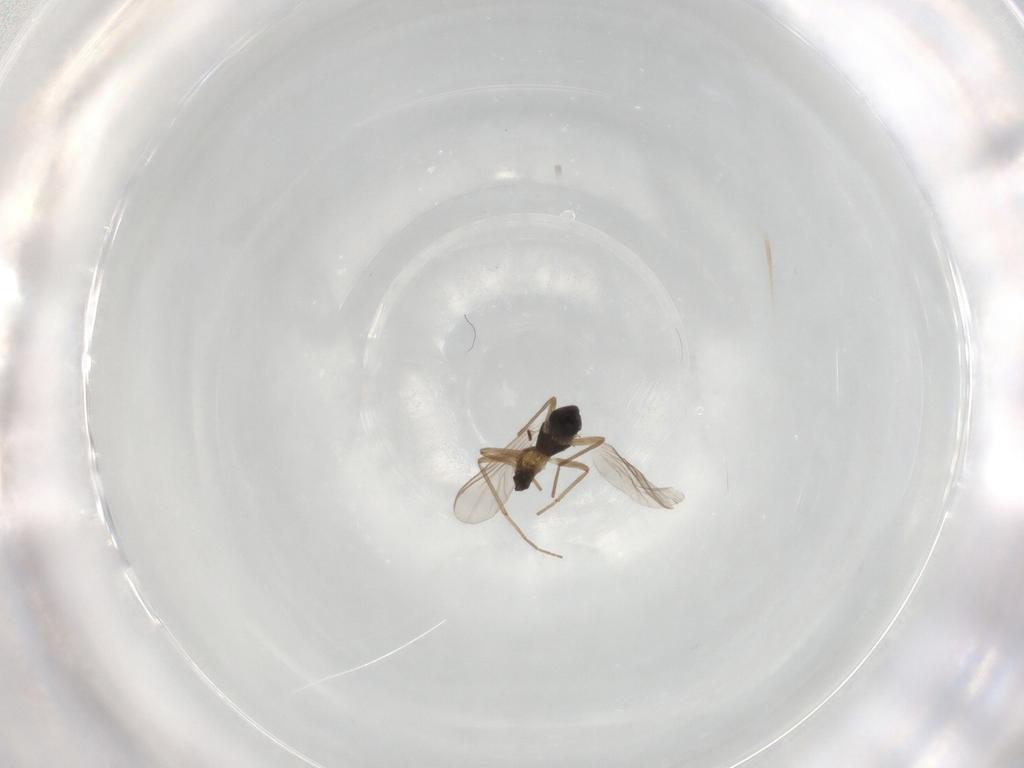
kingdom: Animalia
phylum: Arthropoda
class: Insecta
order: Diptera
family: Chironomidae
